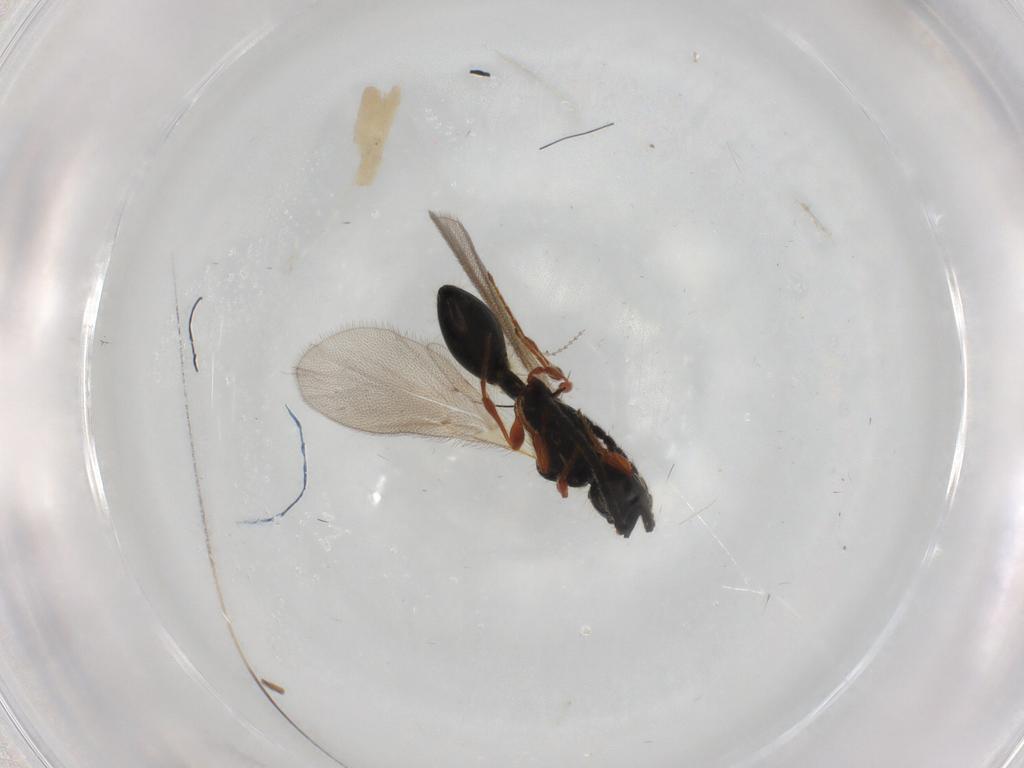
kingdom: Animalia
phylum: Arthropoda
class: Insecta
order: Hymenoptera
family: Diapriidae
